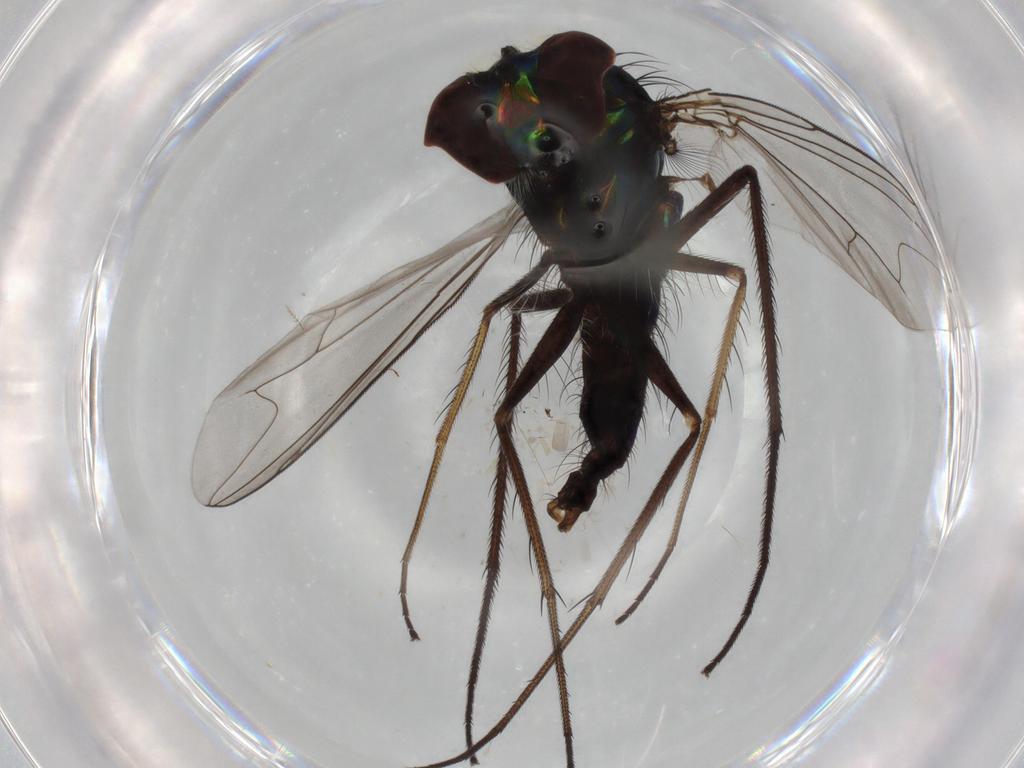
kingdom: Animalia
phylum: Arthropoda
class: Insecta
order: Diptera
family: Dolichopodidae
